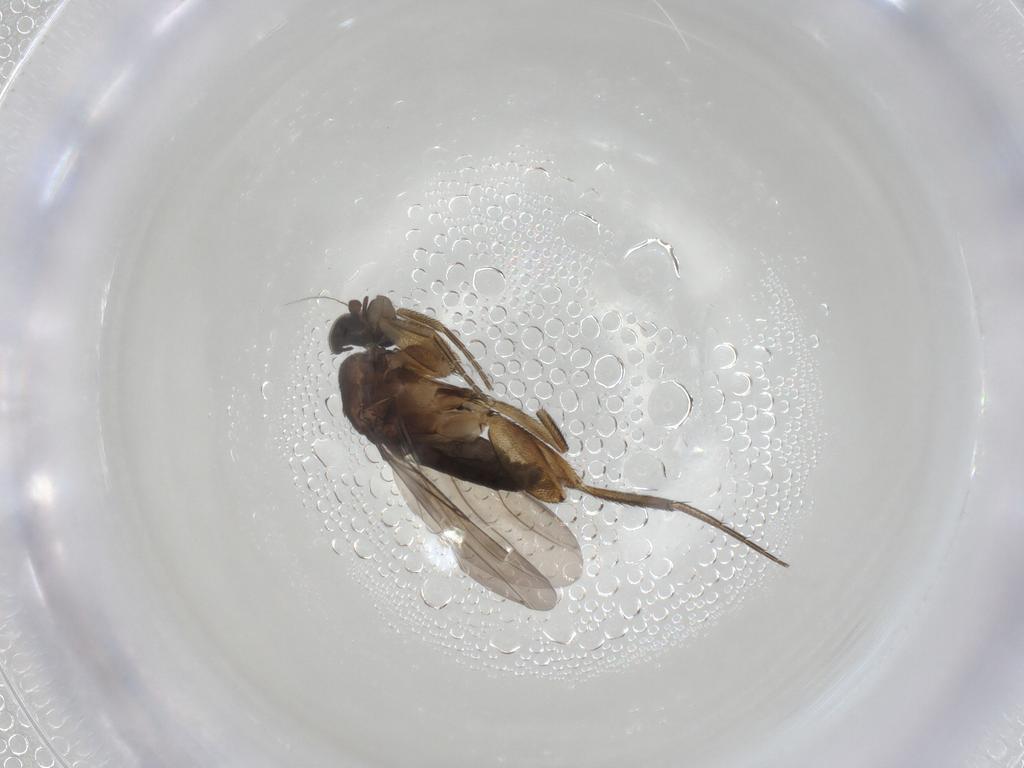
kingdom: Animalia
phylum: Arthropoda
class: Insecta
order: Diptera
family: Phoridae
